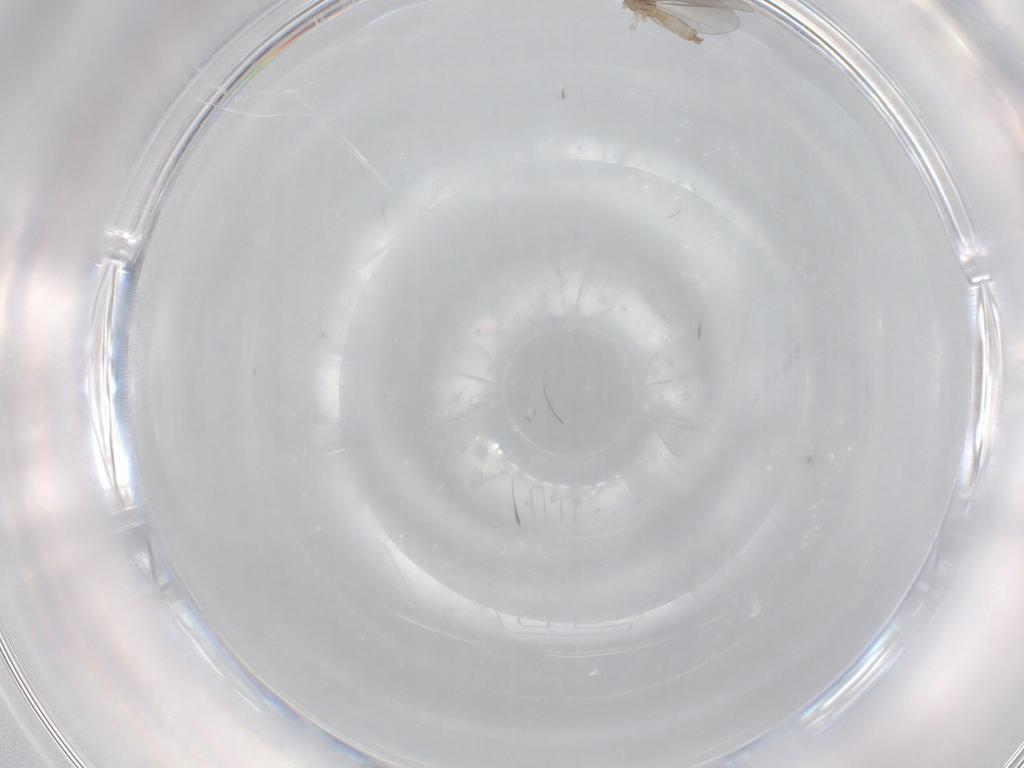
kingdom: Animalia
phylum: Arthropoda
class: Insecta
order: Diptera
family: Cecidomyiidae
